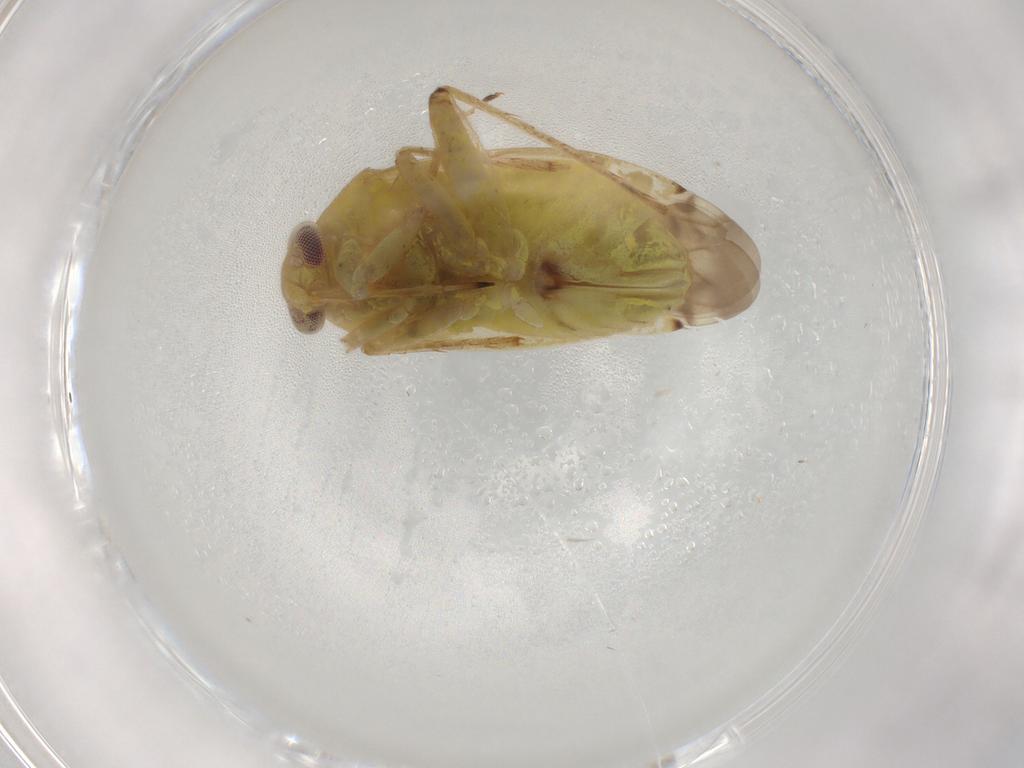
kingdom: Animalia
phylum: Arthropoda
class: Insecta
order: Hemiptera
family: Miridae
